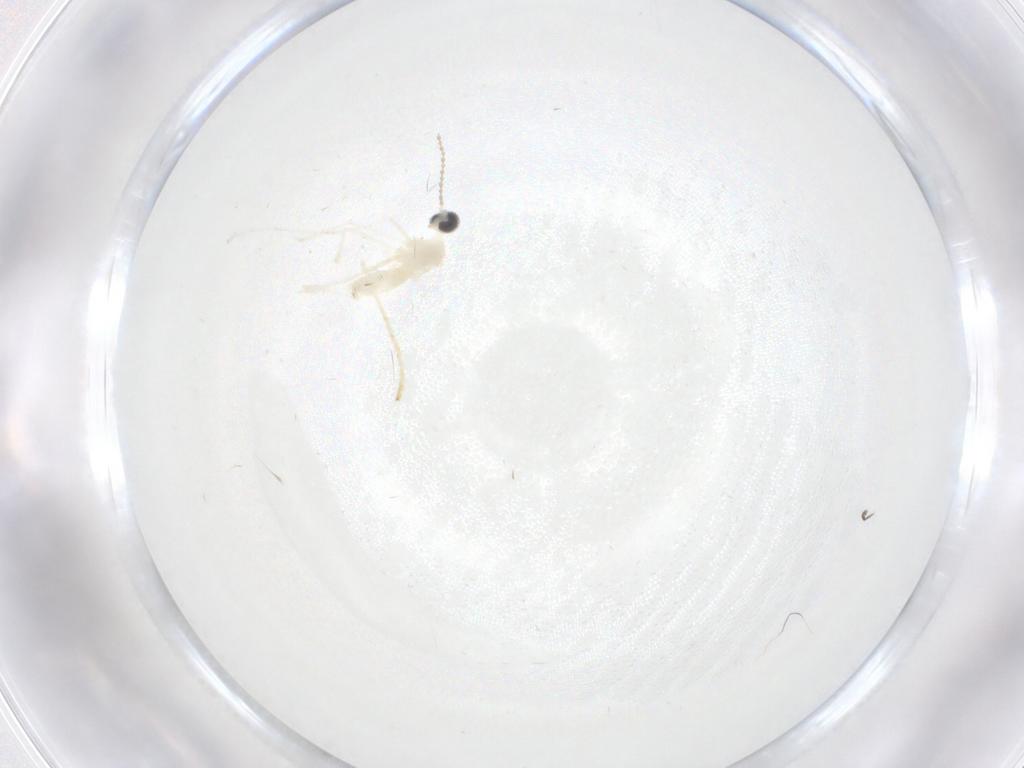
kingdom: Animalia
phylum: Arthropoda
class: Insecta
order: Diptera
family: Cecidomyiidae
